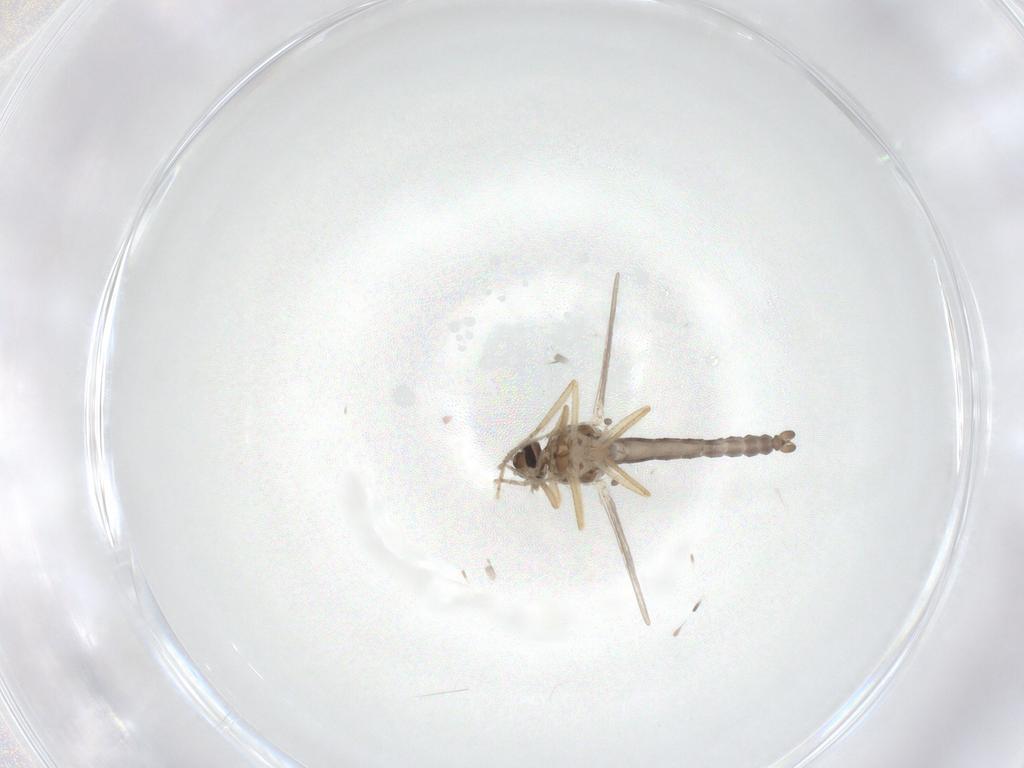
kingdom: Animalia
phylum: Arthropoda
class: Insecta
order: Diptera
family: Ceratopogonidae
